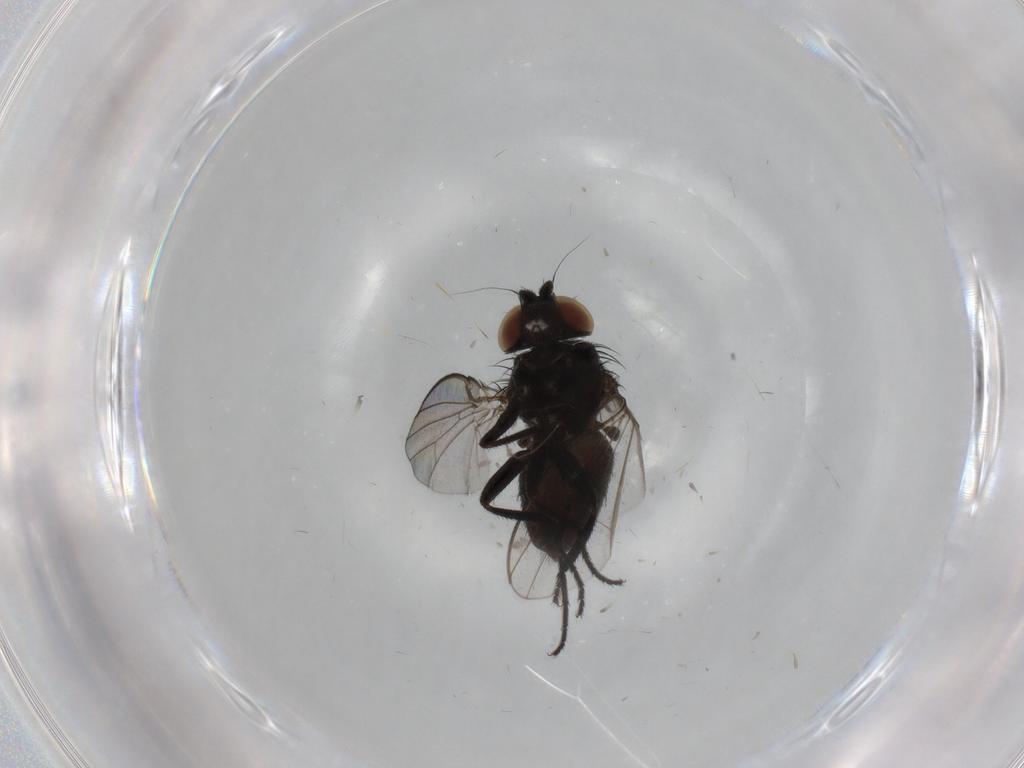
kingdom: Animalia
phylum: Arthropoda
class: Insecta
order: Diptera
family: Milichiidae
